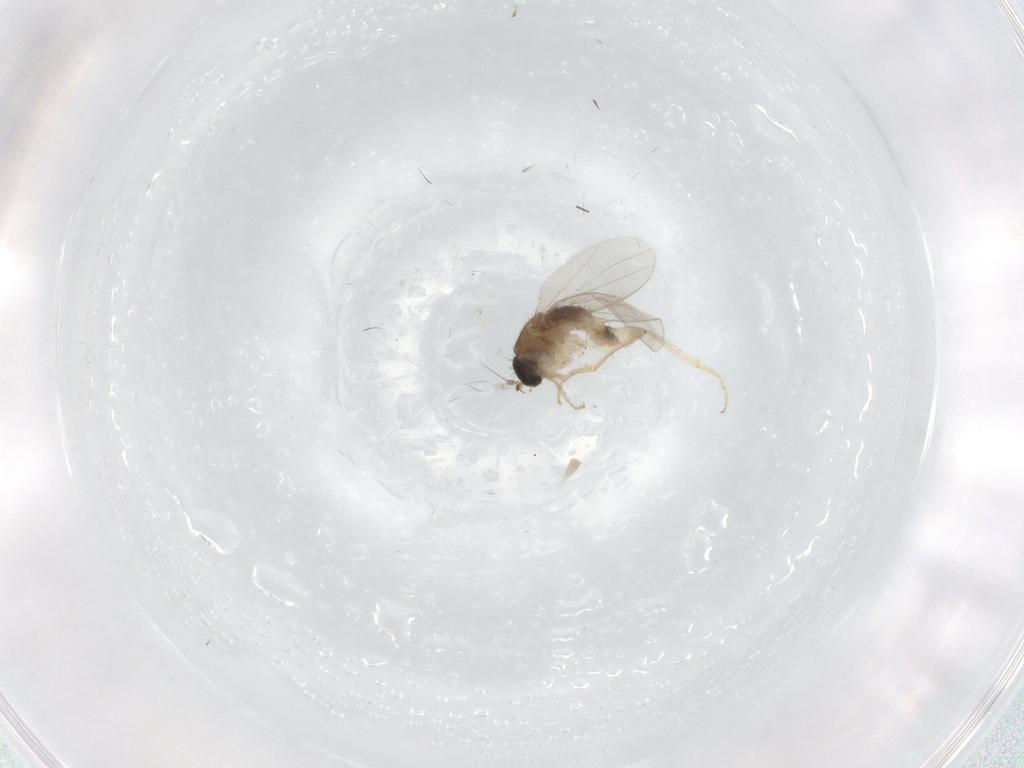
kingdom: Animalia
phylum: Arthropoda
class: Insecta
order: Diptera
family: Hybotidae
